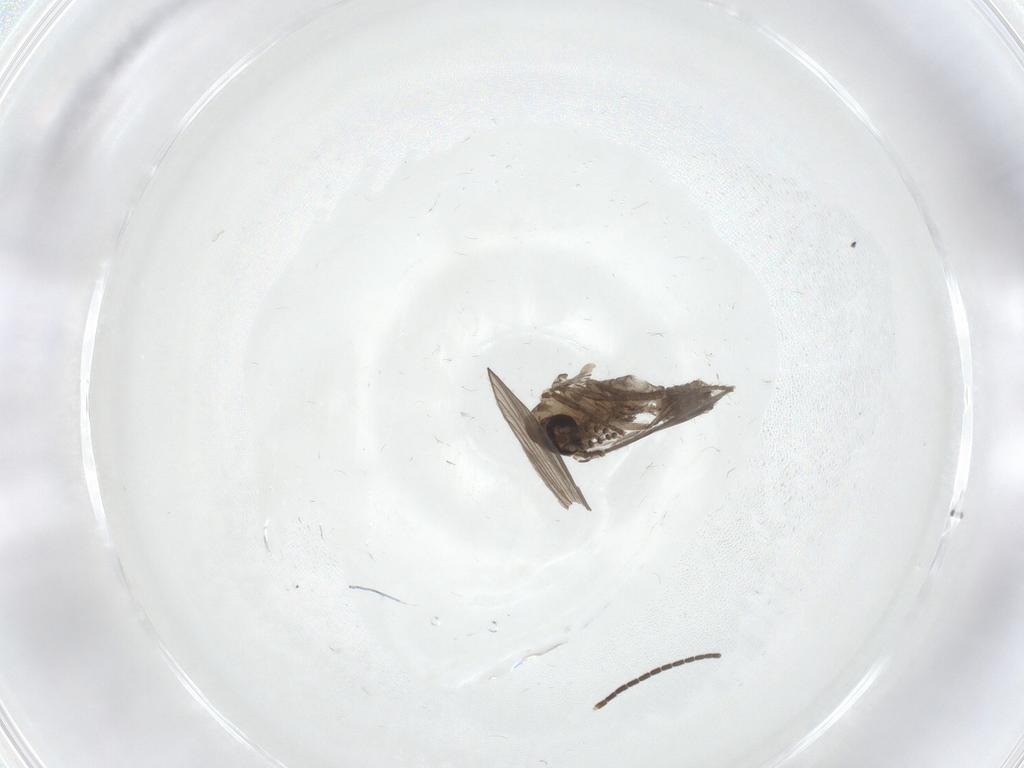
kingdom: Animalia
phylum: Arthropoda
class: Insecta
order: Diptera
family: Sciaridae
